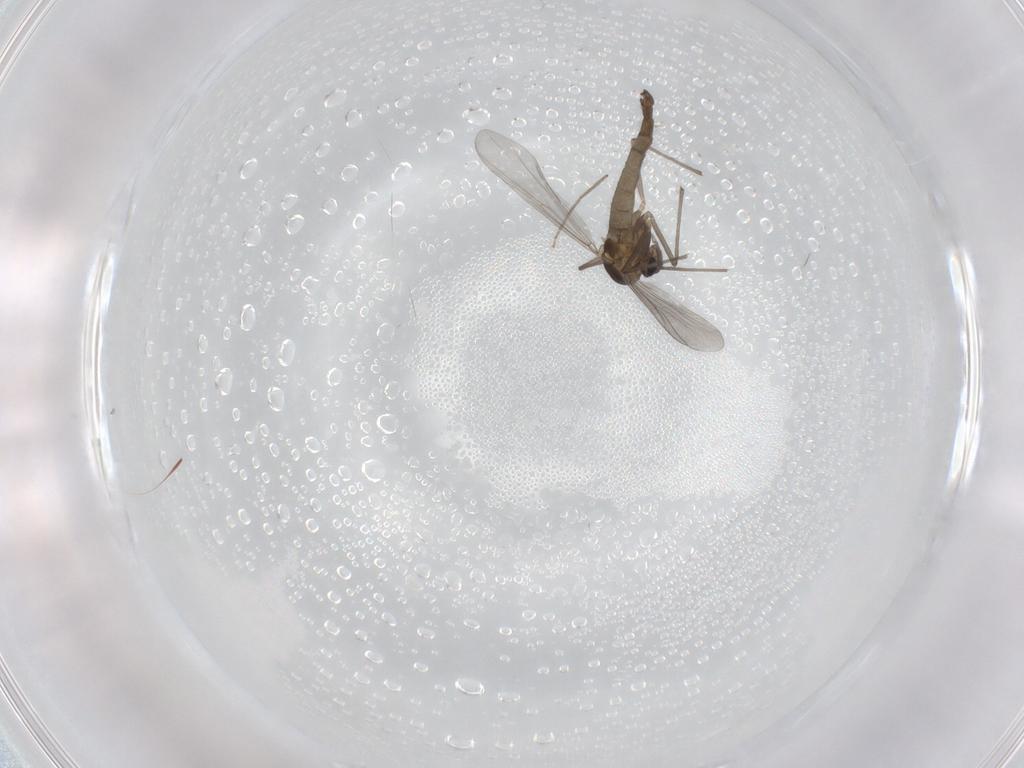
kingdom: Animalia
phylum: Arthropoda
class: Insecta
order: Diptera
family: Chironomidae
